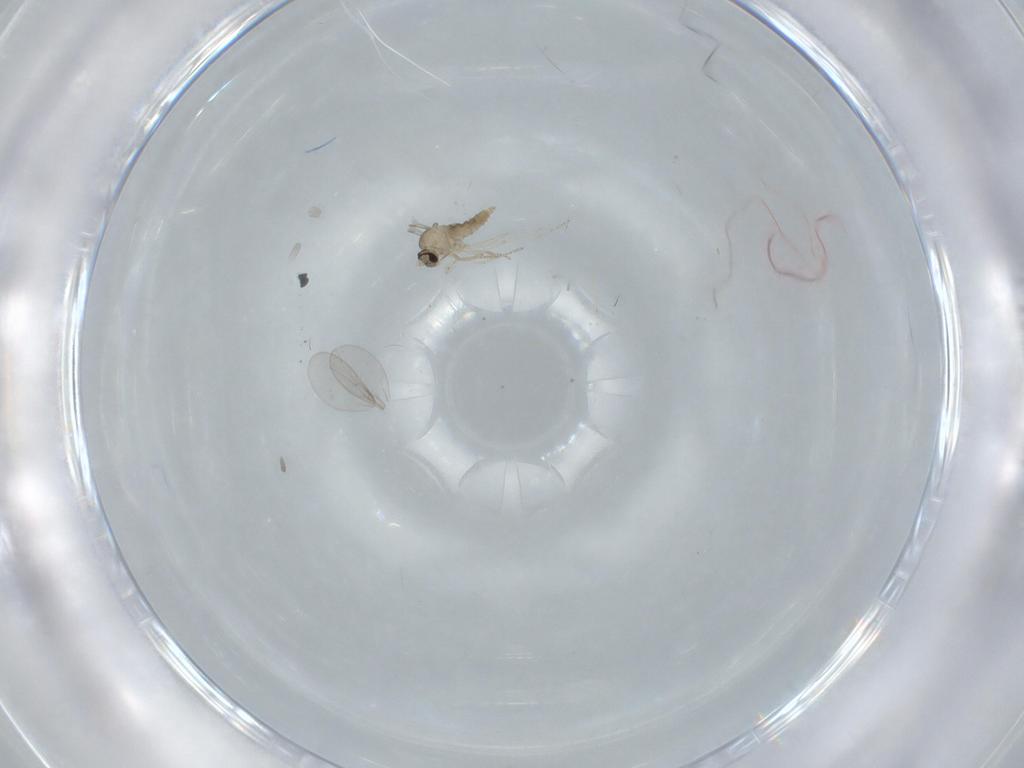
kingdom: Animalia
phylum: Arthropoda
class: Insecta
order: Diptera
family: Cecidomyiidae
